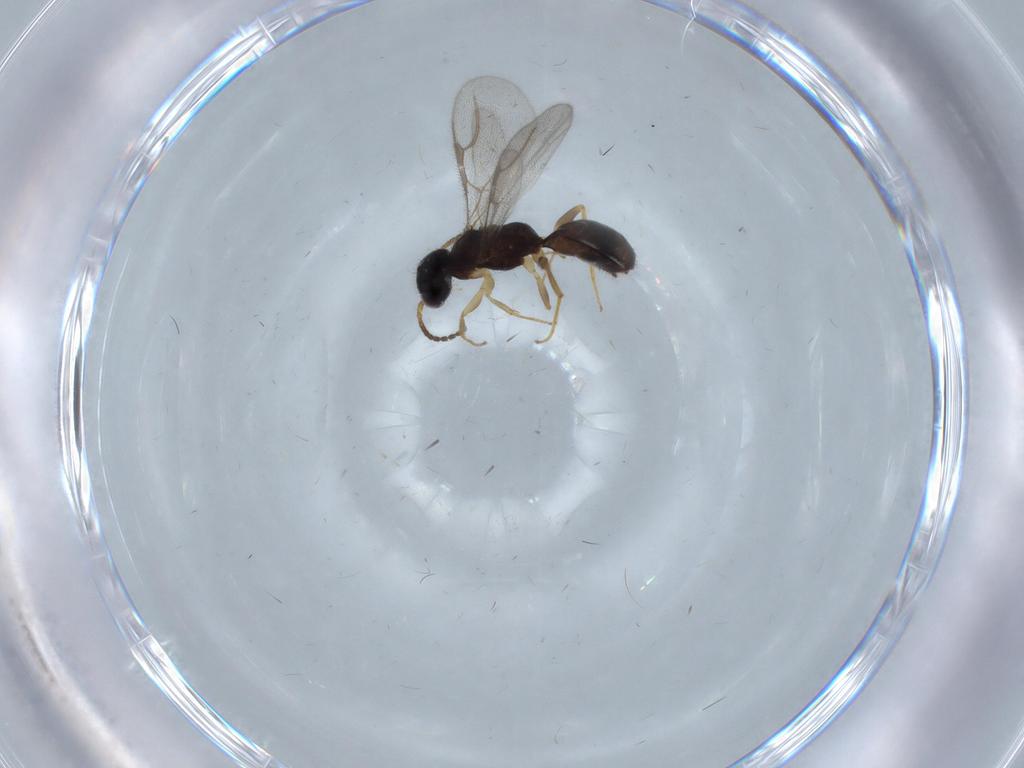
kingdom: Animalia
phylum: Arthropoda
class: Insecta
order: Hymenoptera
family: Bethylidae
